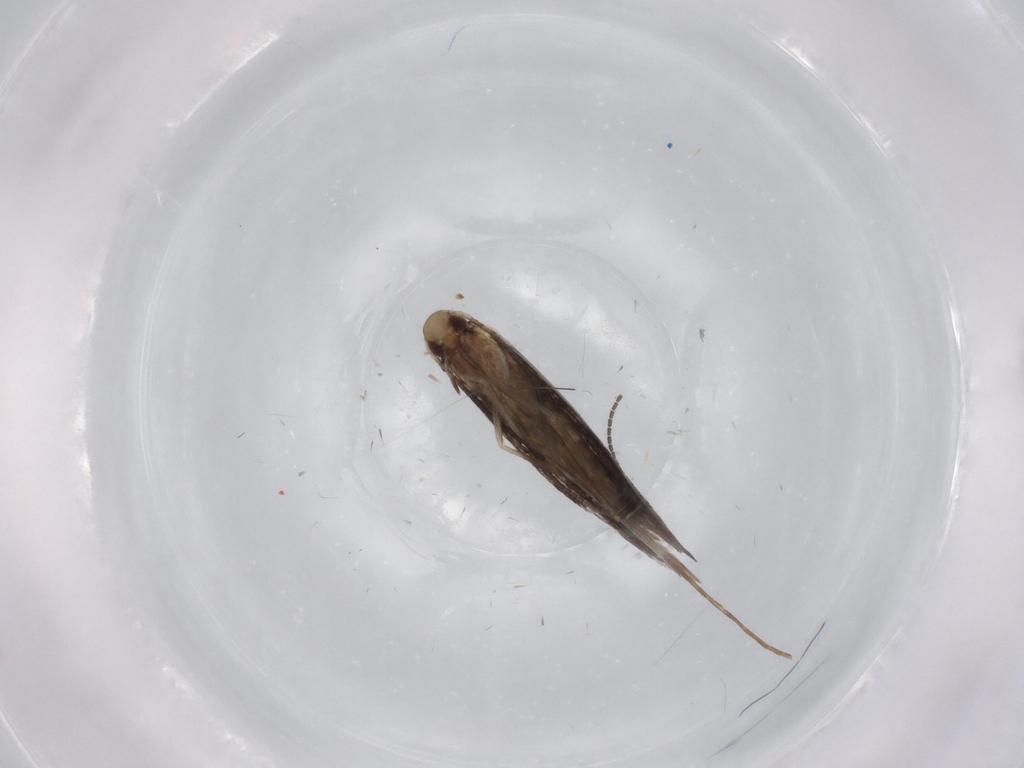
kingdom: Animalia
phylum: Arthropoda
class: Insecta
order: Lepidoptera
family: Gracillariidae
